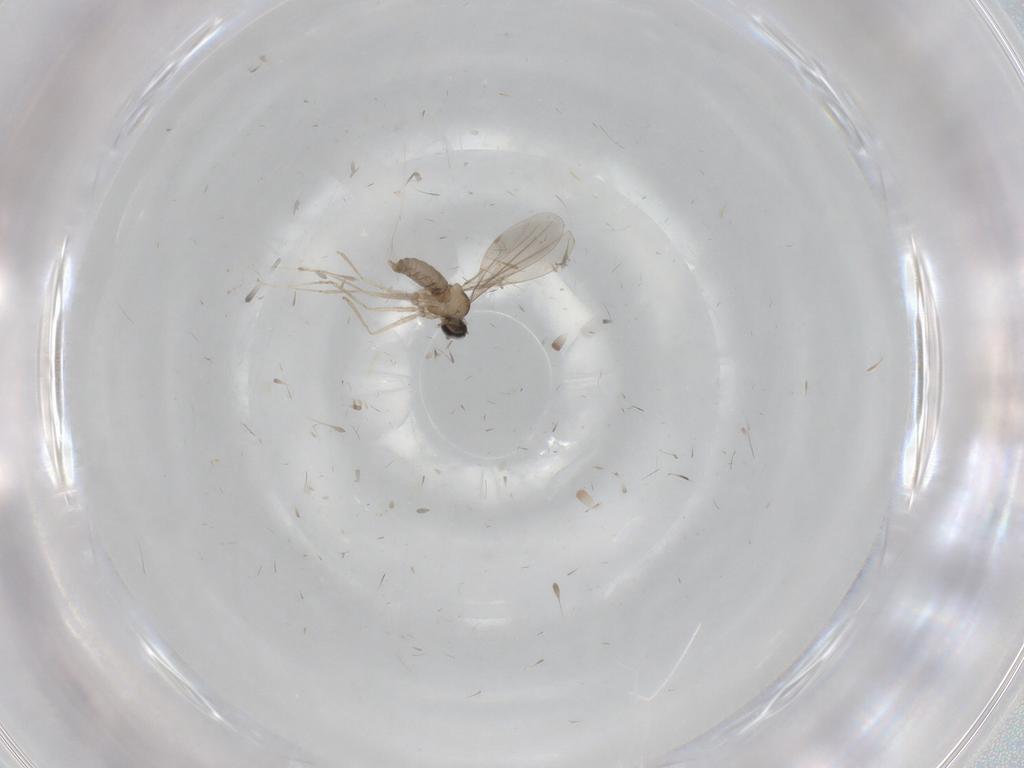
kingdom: Animalia
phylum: Arthropoda
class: Insecta
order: Diptera
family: Cecidomyiidae
